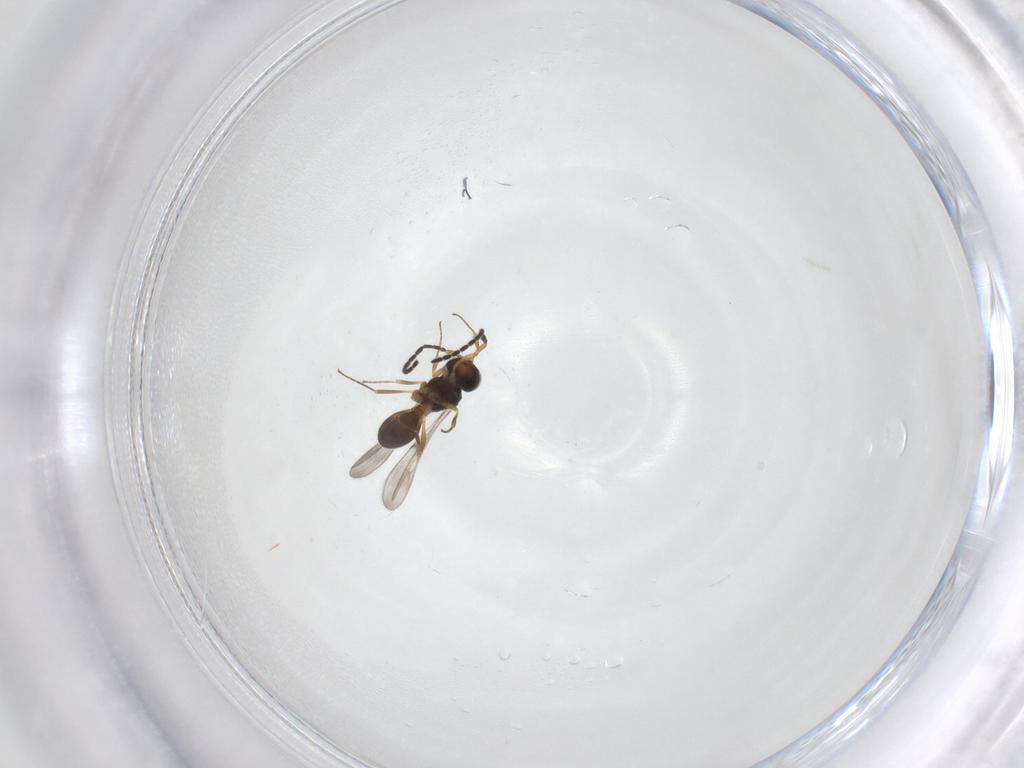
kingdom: Animalia
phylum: Arthropoda
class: Insecta
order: Hymenoptera
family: Scelionidae
